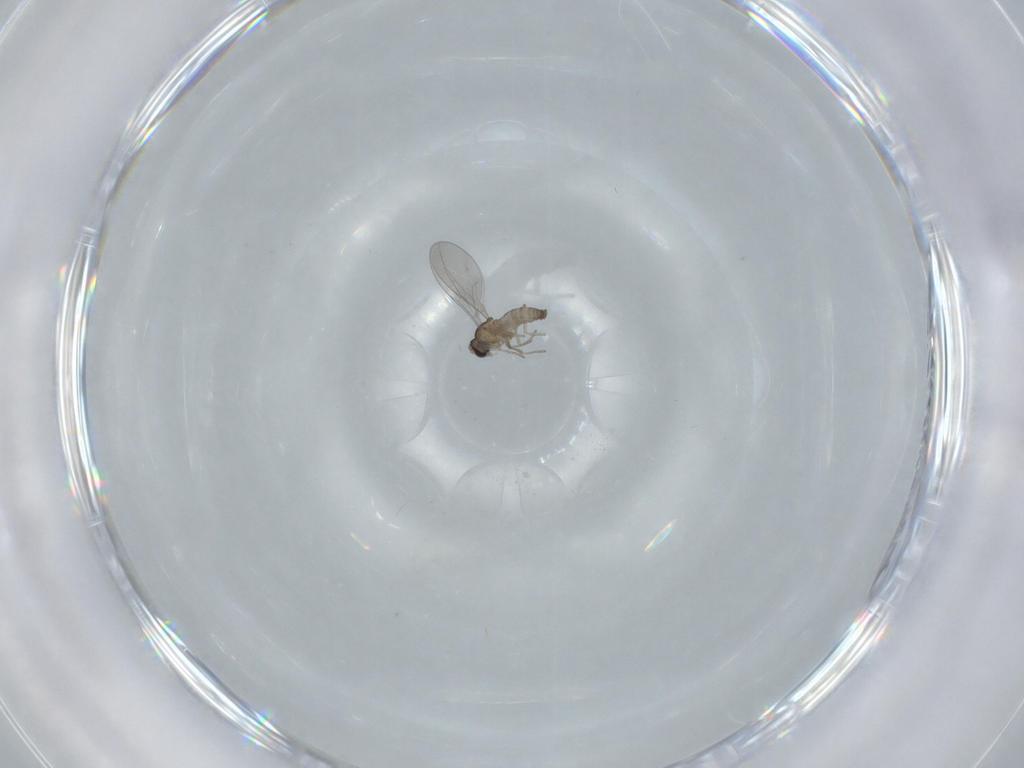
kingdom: Animalia
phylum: Arthropoda
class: Insecta
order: Diptera
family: Cecidomyiidae
